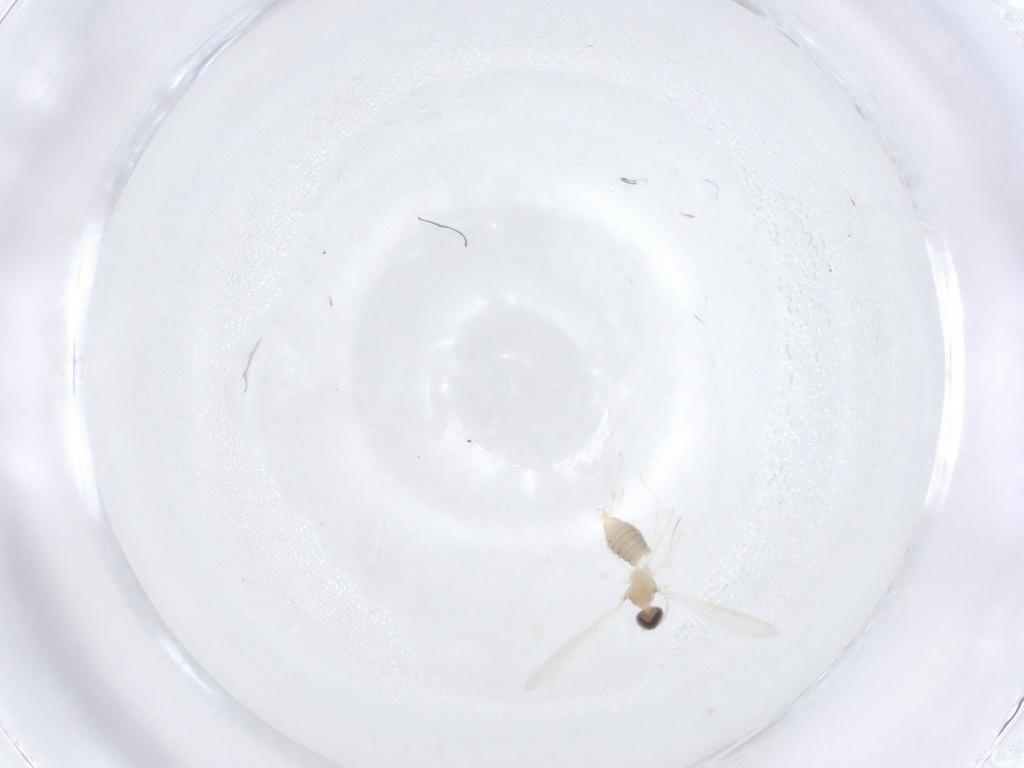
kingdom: Animalia
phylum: Arthropoda
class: Insecta
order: Diptera
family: Cecidomyiidae
